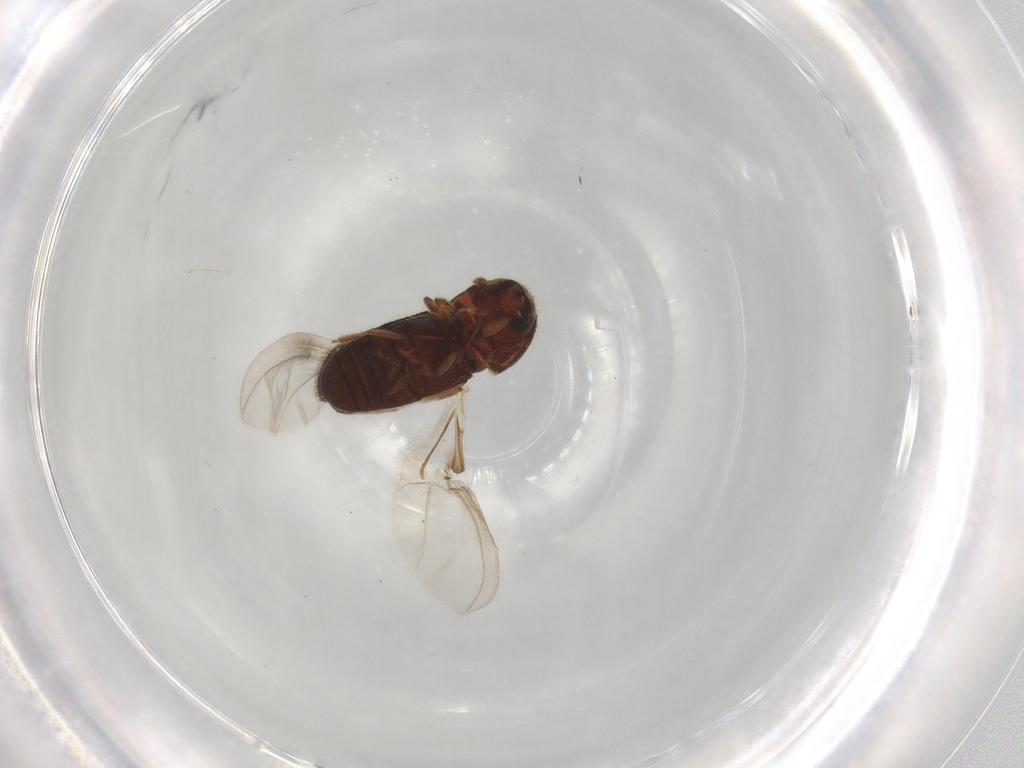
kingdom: Animalia
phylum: Arthropoda
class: Insecta
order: Coleoptera
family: Curculionidae
